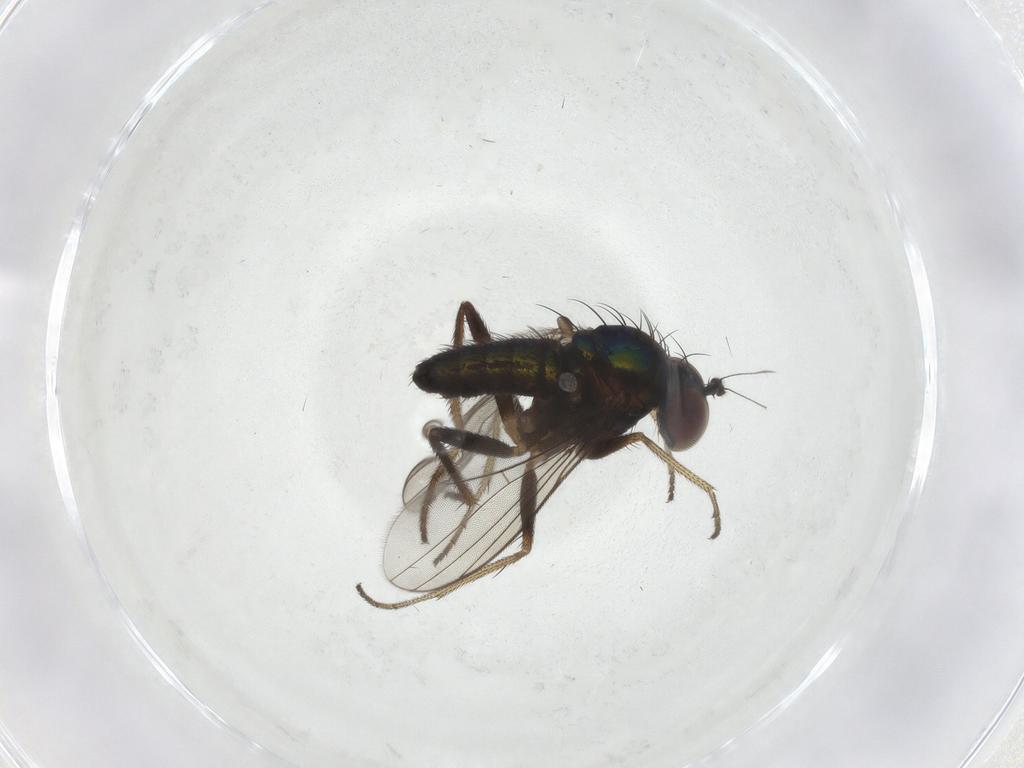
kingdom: Animalia
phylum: Arthropoda
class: Insecta
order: Diptera
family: Dolichopodidae
